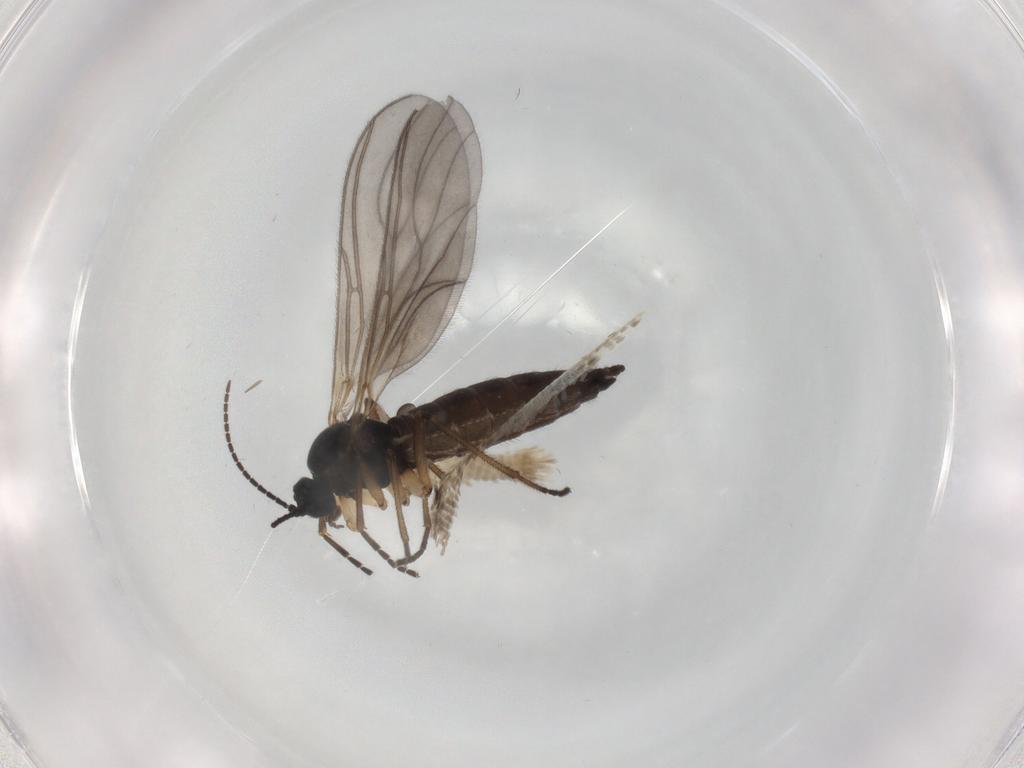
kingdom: Animalia
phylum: Arthropoda
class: Insecta
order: Diptera
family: Sciaridae
